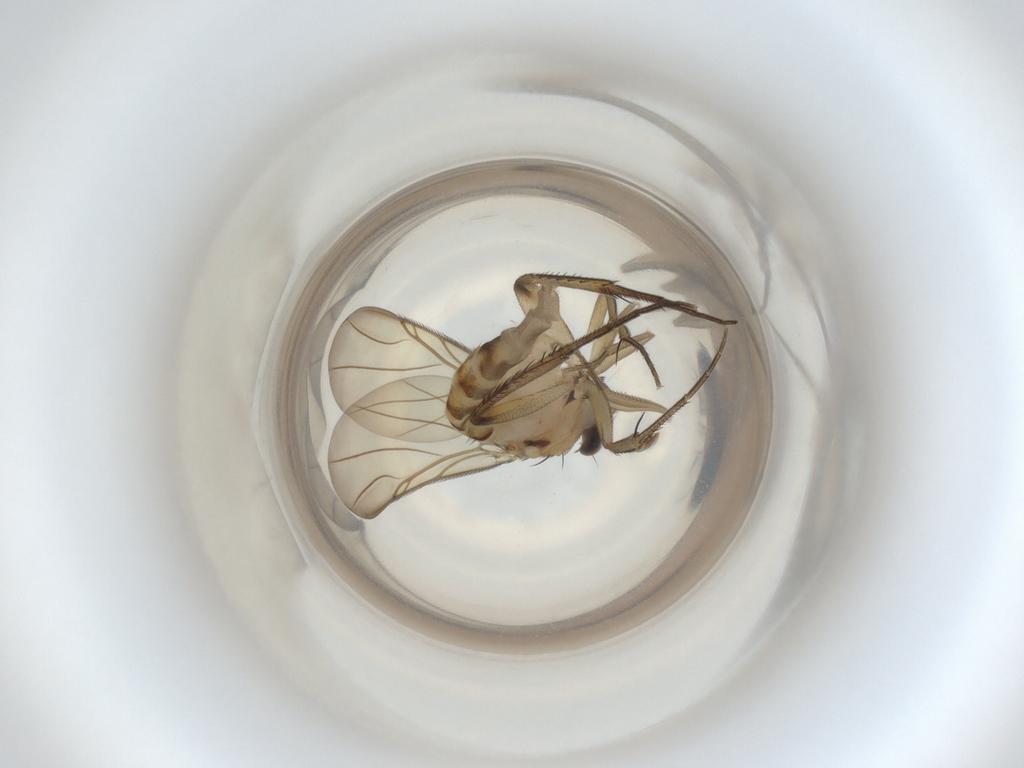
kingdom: Animalia
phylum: Arthropoda
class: Insecta
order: Diptera
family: Phoridae
